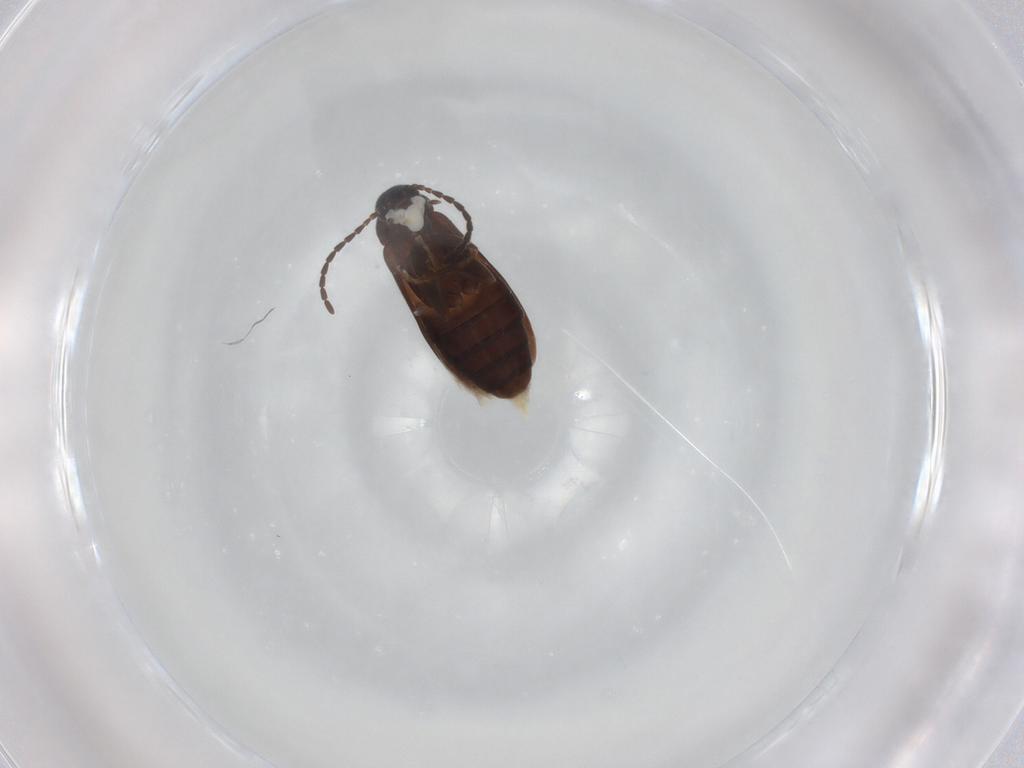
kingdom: Animalia
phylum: Arthropoda
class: Insecta
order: Coleoptera
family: Scraptiidae
